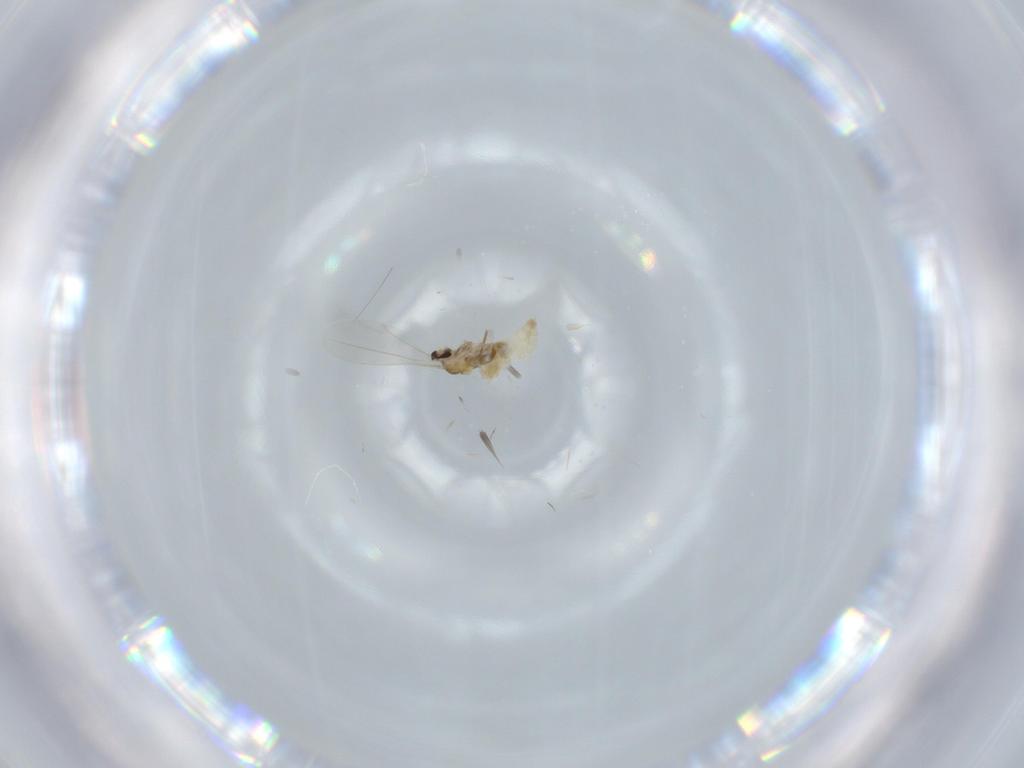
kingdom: Animalia
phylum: Arthropoda
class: Insecta
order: Diptera
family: Cecidomyiidae
